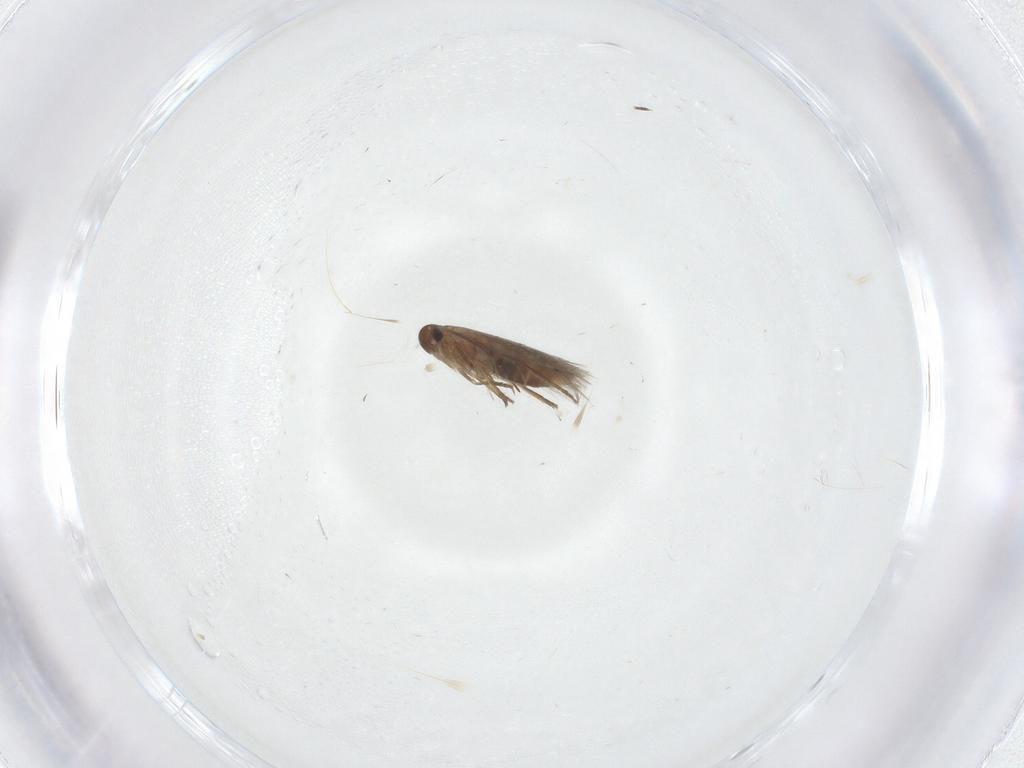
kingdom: Animalia
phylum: Arthropoda
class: Insecta
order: Lepidoptera
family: Heliozelidae
